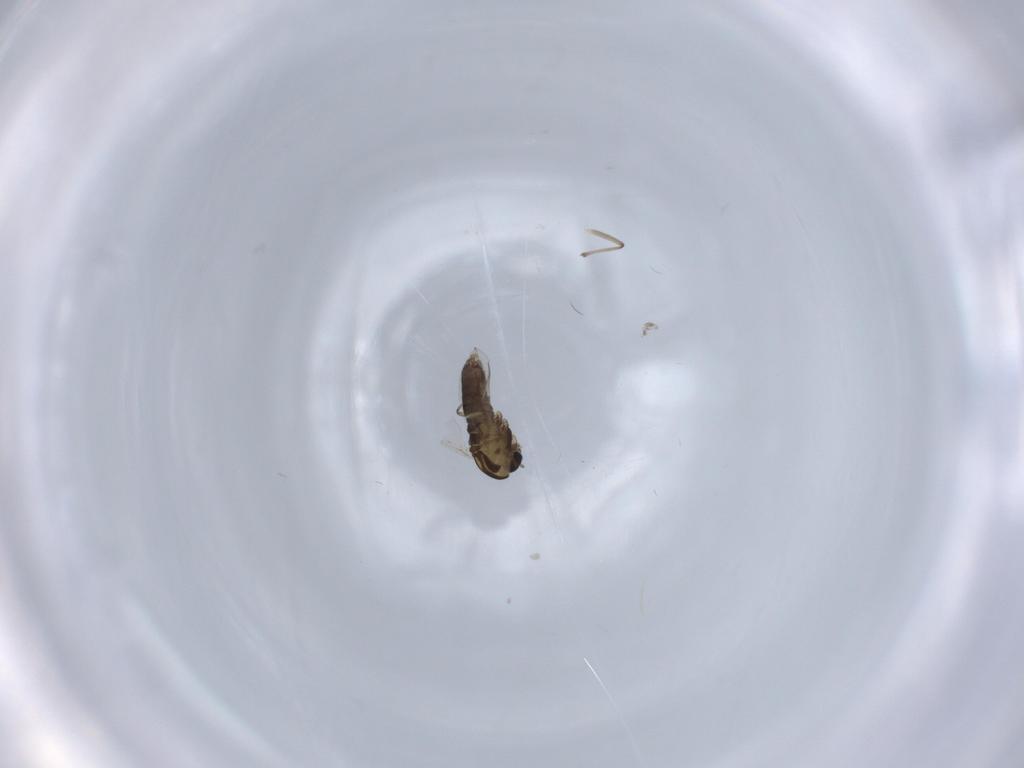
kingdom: Animalia
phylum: Arthropoda
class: Insecta
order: Diptera
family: Chironomidae
